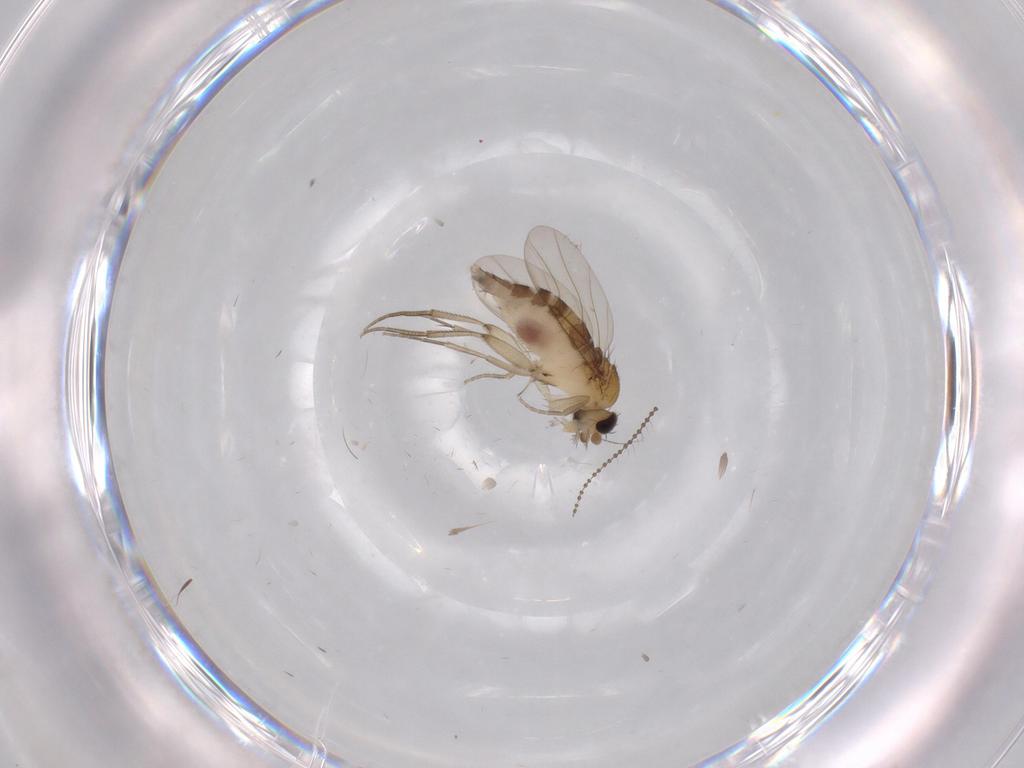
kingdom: Animalia
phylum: Arthropoda
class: Insecta
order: Diptera
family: Phoridae
